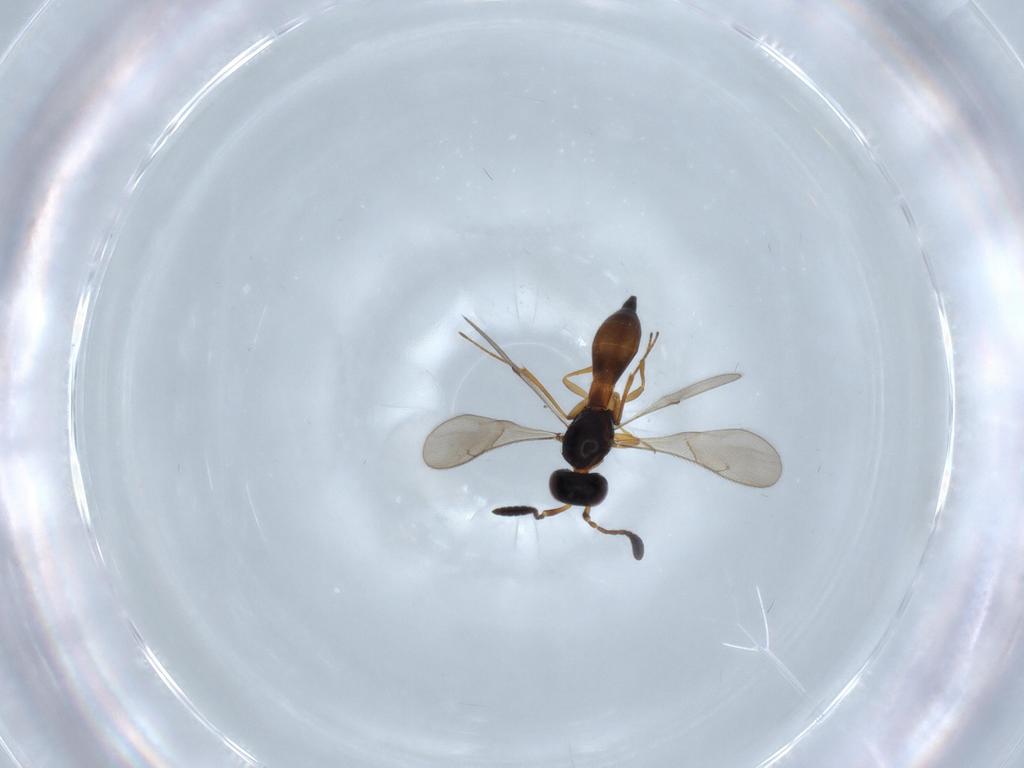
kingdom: Animalia
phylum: Arthropoda
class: Insecta
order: Hymenoptera
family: Scelionidae
